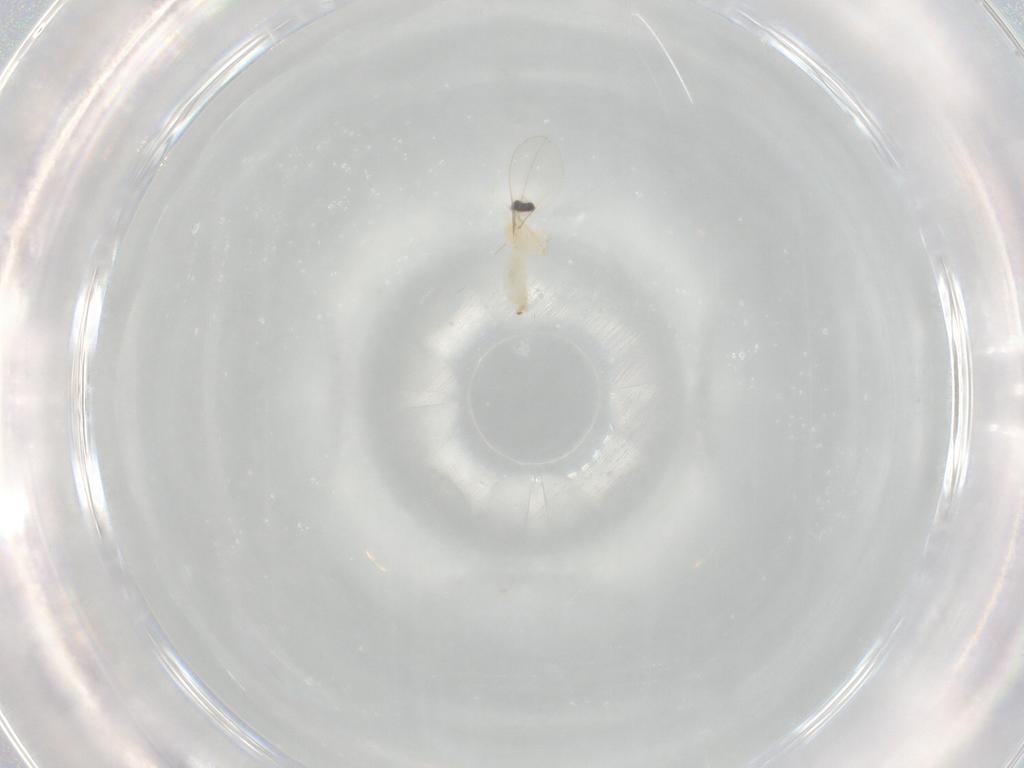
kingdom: Animalia
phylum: Arthropoda
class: Insecta
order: Diptera
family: Cecidomyiidae
